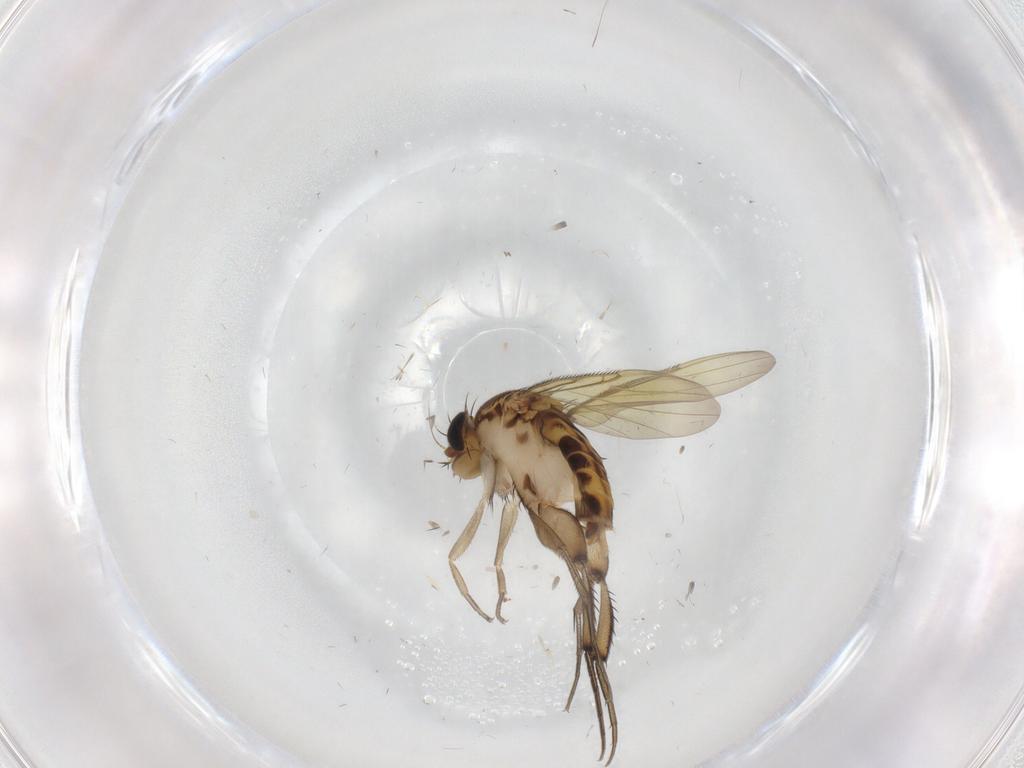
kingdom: Animalia
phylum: Arthropoda
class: Insecta
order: Diptera
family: Phoridae
